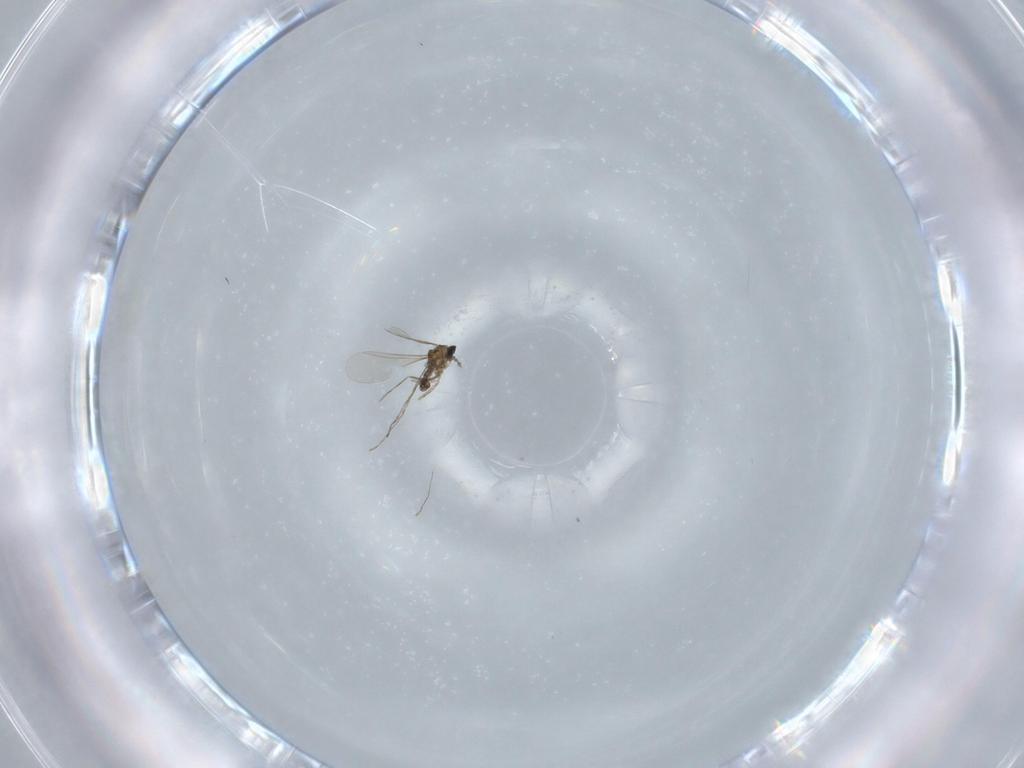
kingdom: Animalia
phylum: Arthropoda
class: Insecta
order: Diptera
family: Cecidomyiidae
